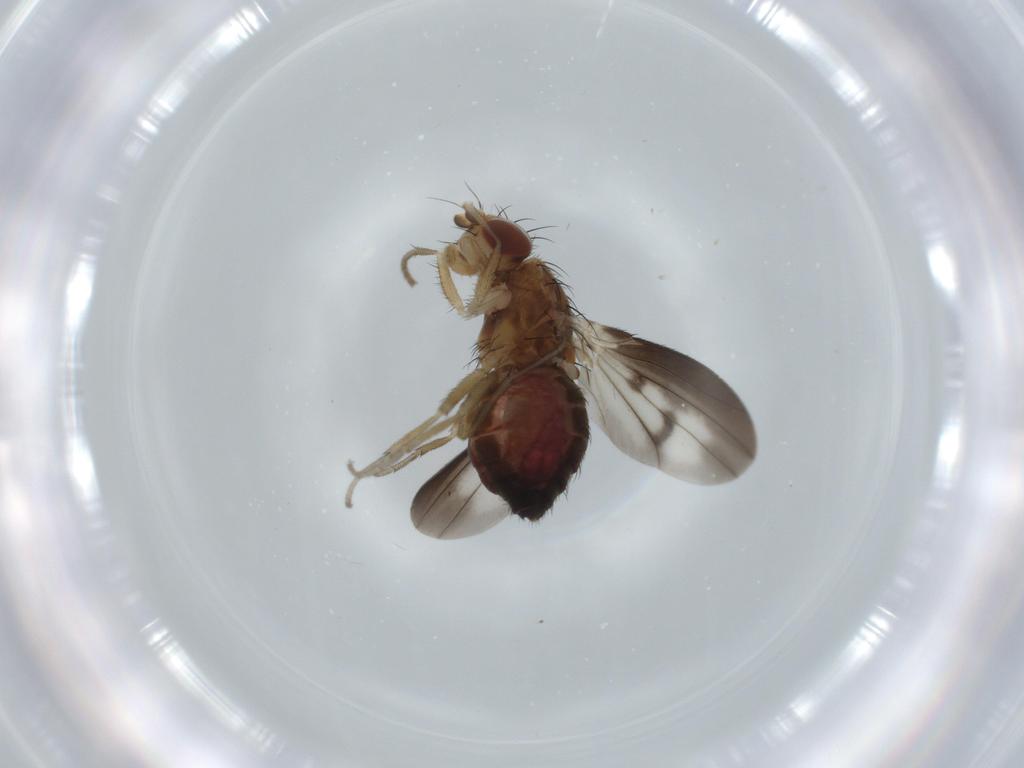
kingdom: Animalia
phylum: Arthropoda
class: Insecta
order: Diptera
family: Heleomyzidae
